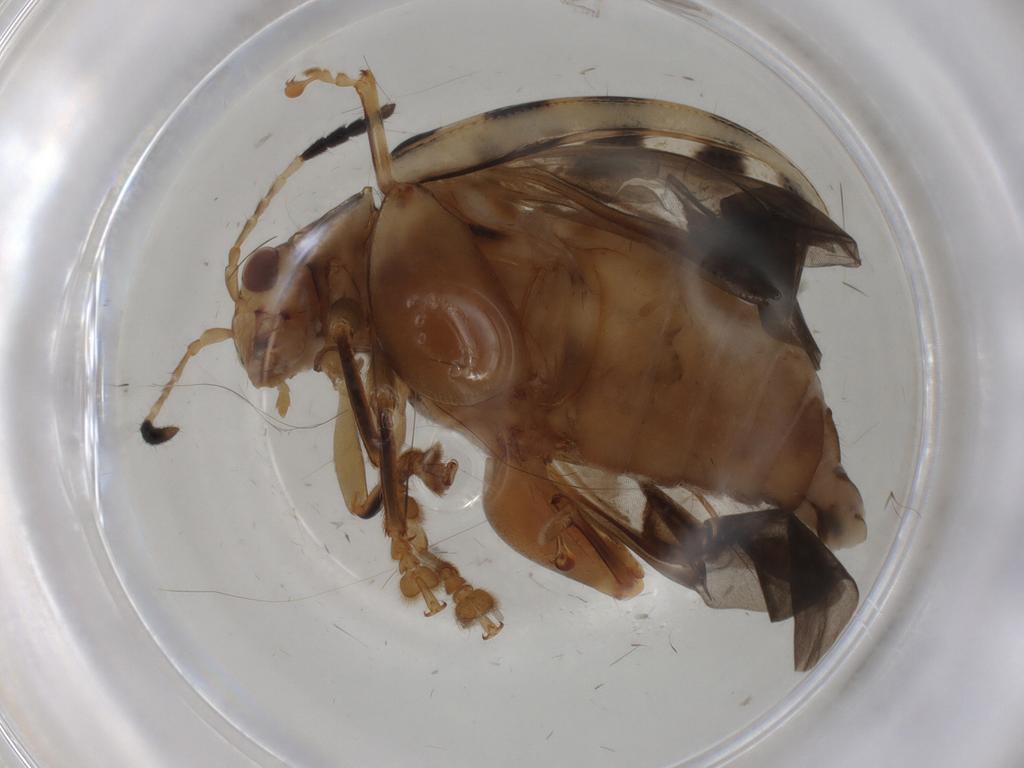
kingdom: Animalia
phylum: Arthropoda
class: Insecta
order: Coleoptera
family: Chrysomelidae
